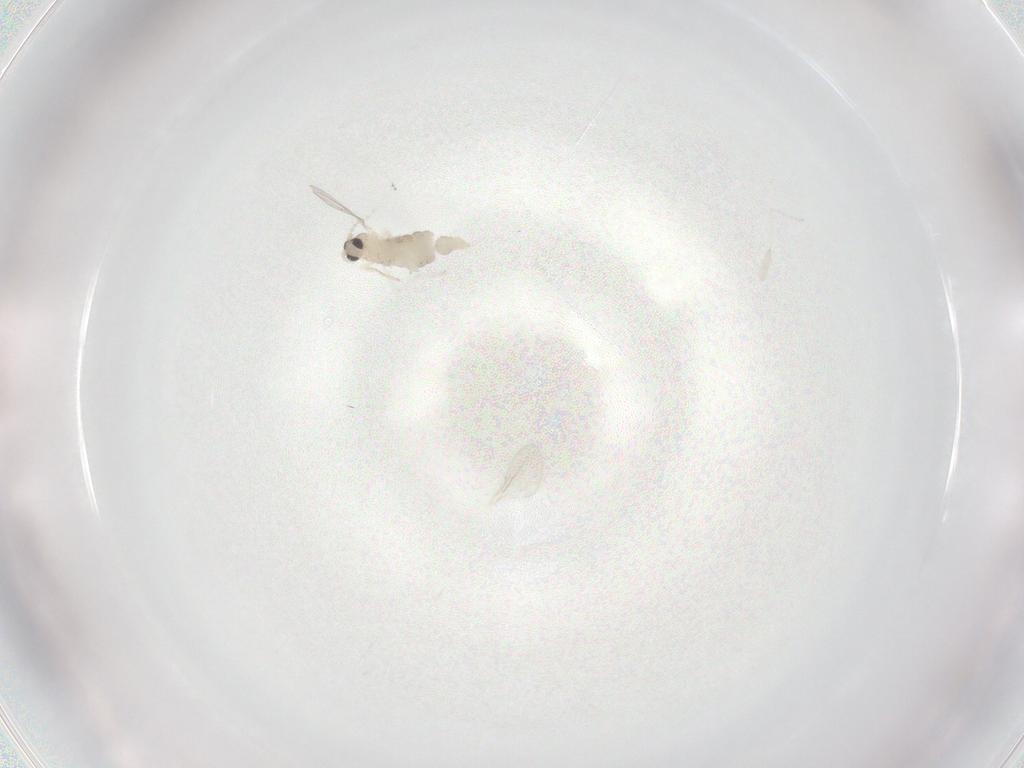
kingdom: Animalia
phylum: Arthropoda
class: Insecta
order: Diptera
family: Cecidomyiidae
